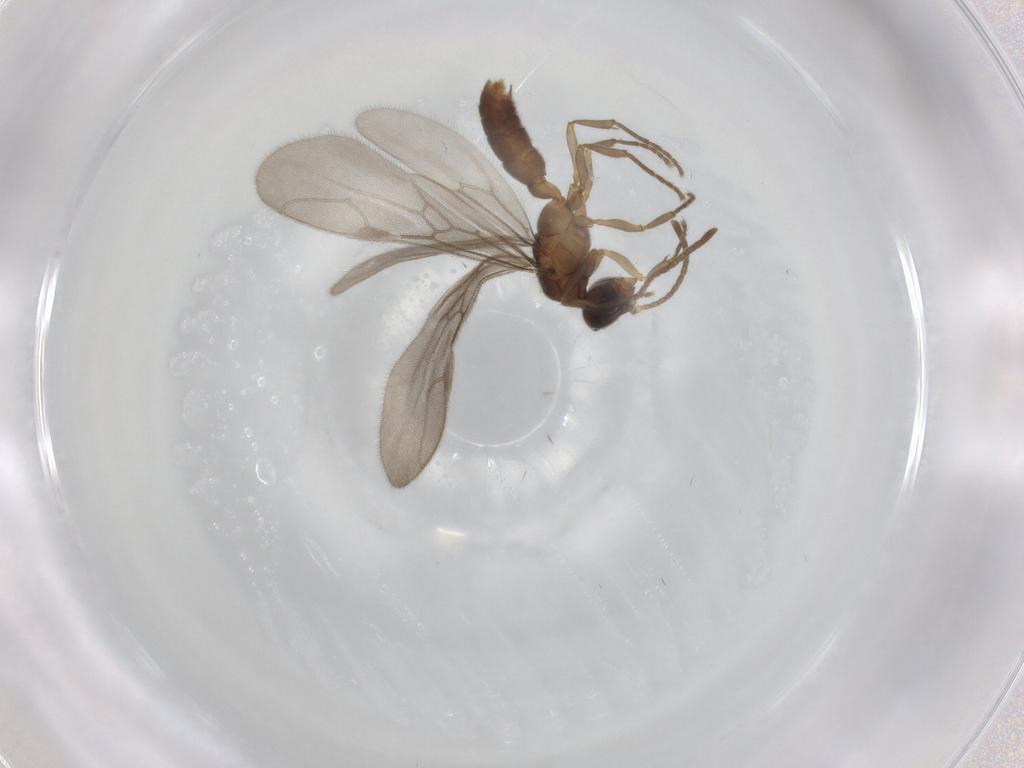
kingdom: Animalia
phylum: Arthropoda
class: Insecta
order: Hymenoptera
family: Formicidae
